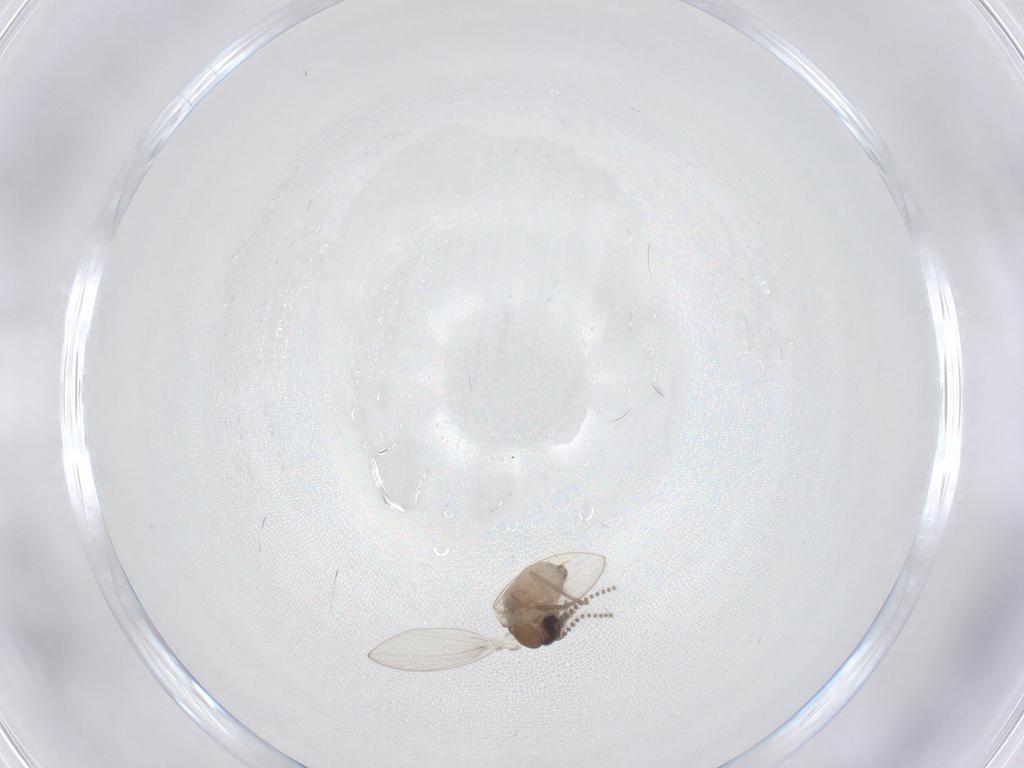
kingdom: Animalia
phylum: Arthropoda
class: Insecta
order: Diptera
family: Psychodidae
